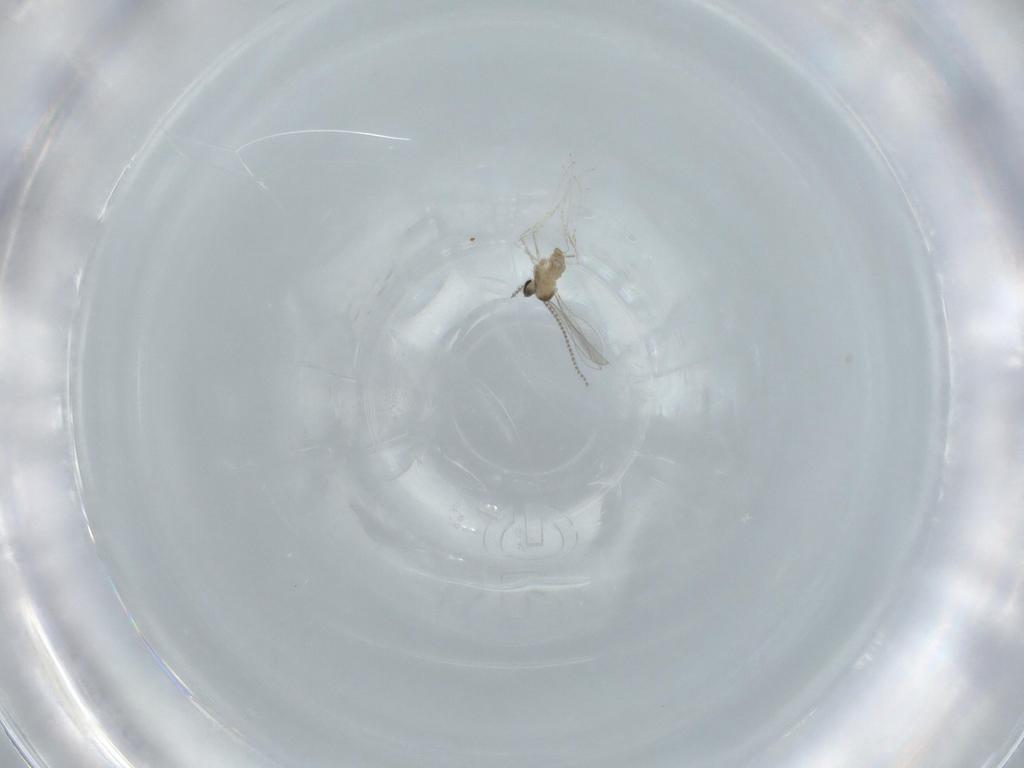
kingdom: Animalia
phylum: Arthropoda
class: Insecta
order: Diptera
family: Cecidomyiidae
